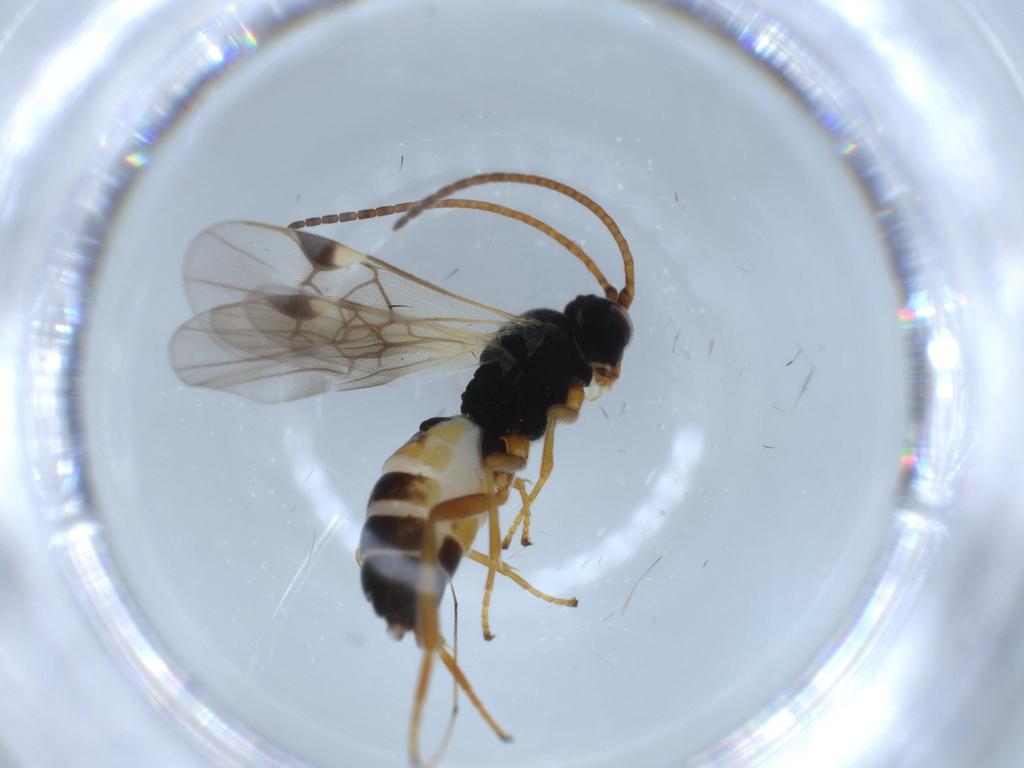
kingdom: Animalia
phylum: Arthropoda
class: Insecta
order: Hymenoptera
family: Braconidae
